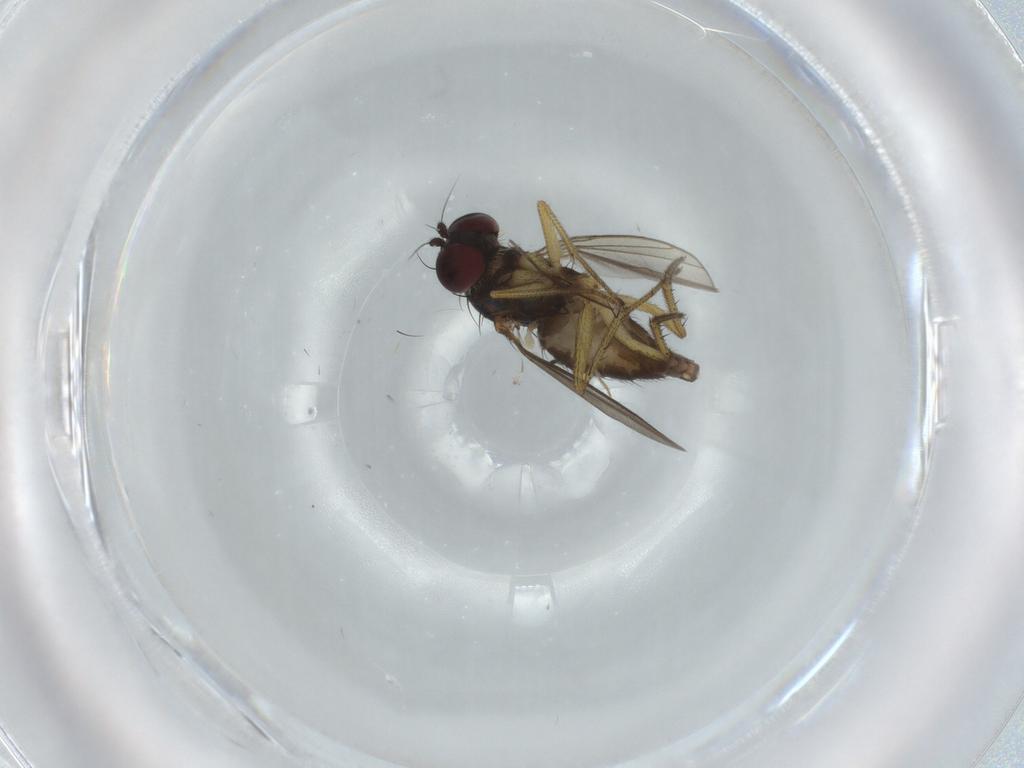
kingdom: Animalia
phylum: Arthropoda
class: Insecta
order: Diptera
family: Dolichopodidae
